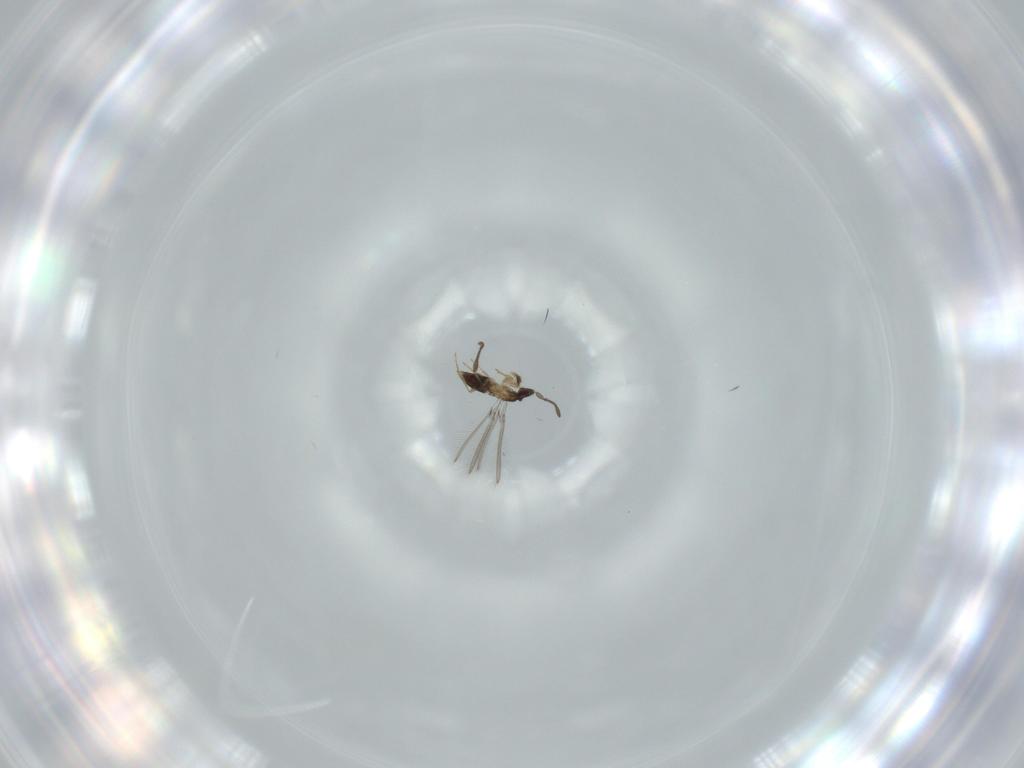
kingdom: Animalia
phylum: Arthropoda
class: Insecta
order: Hymenoptera
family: Mymaridae
